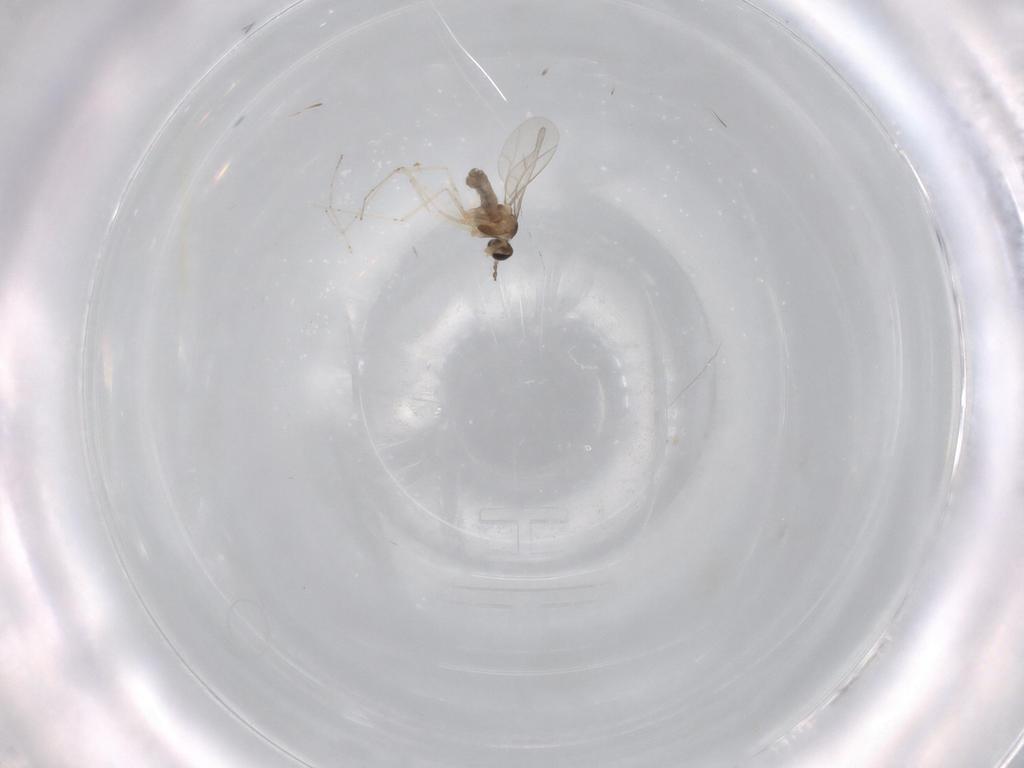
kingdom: Animalia
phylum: Arthropoda
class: Insecta
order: Diptera
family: Cecidomyiidae
